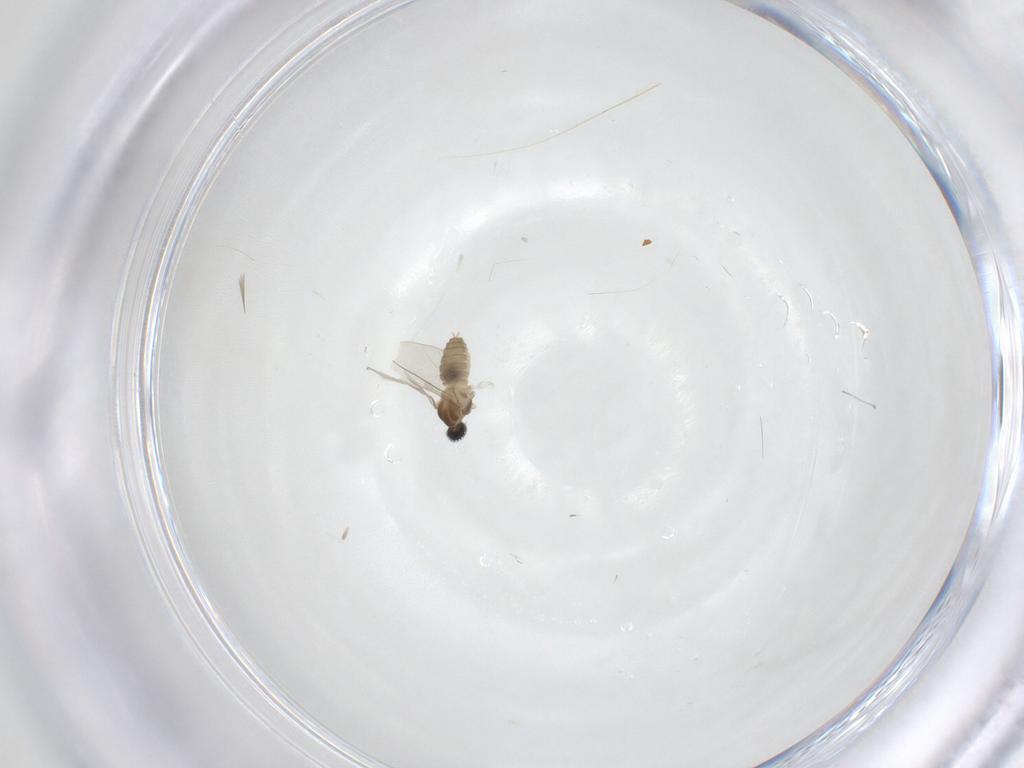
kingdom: Animalia
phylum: Arthropoda
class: Insecta
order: Diptera
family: Cecidomyiidae
